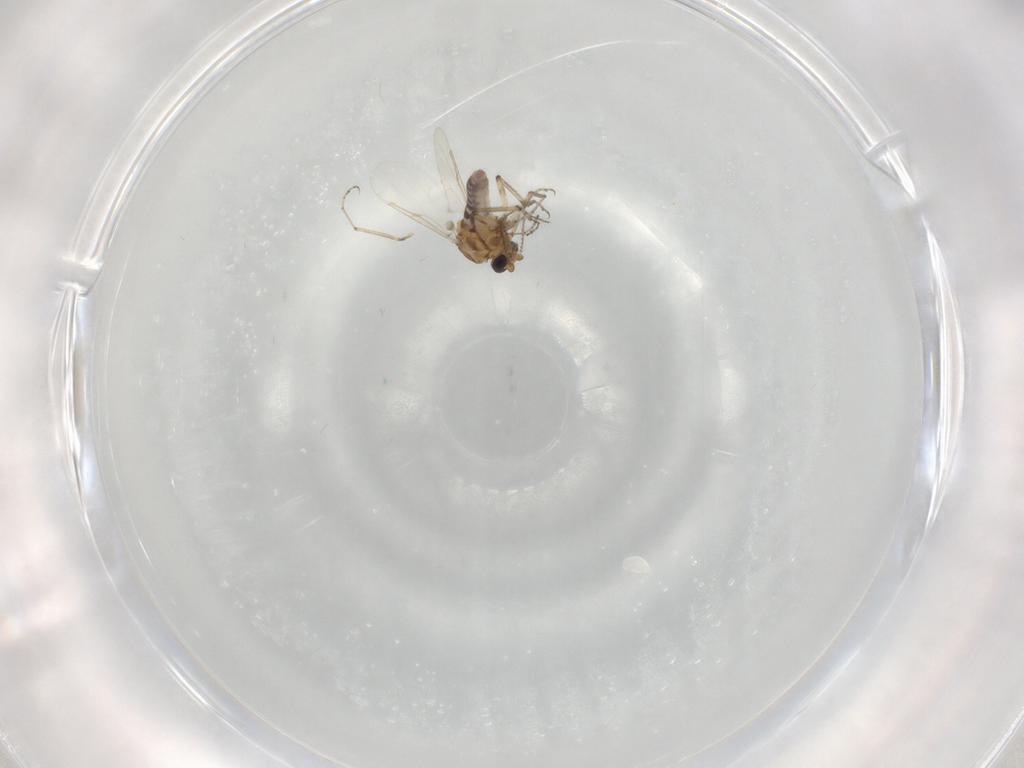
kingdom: Animalia
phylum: Arthropoda
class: Insecta
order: Diptera
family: Ceratopogonidae
